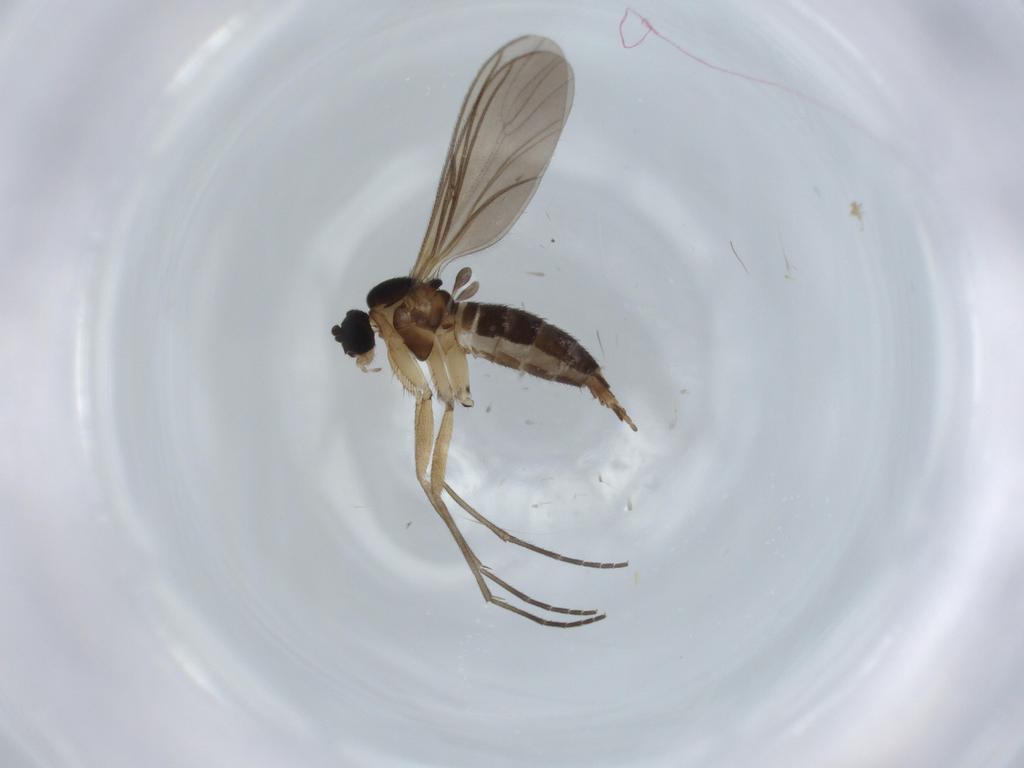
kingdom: Animalia
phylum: Arthropoda
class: Insecta
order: Diptera
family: Sciaridae
